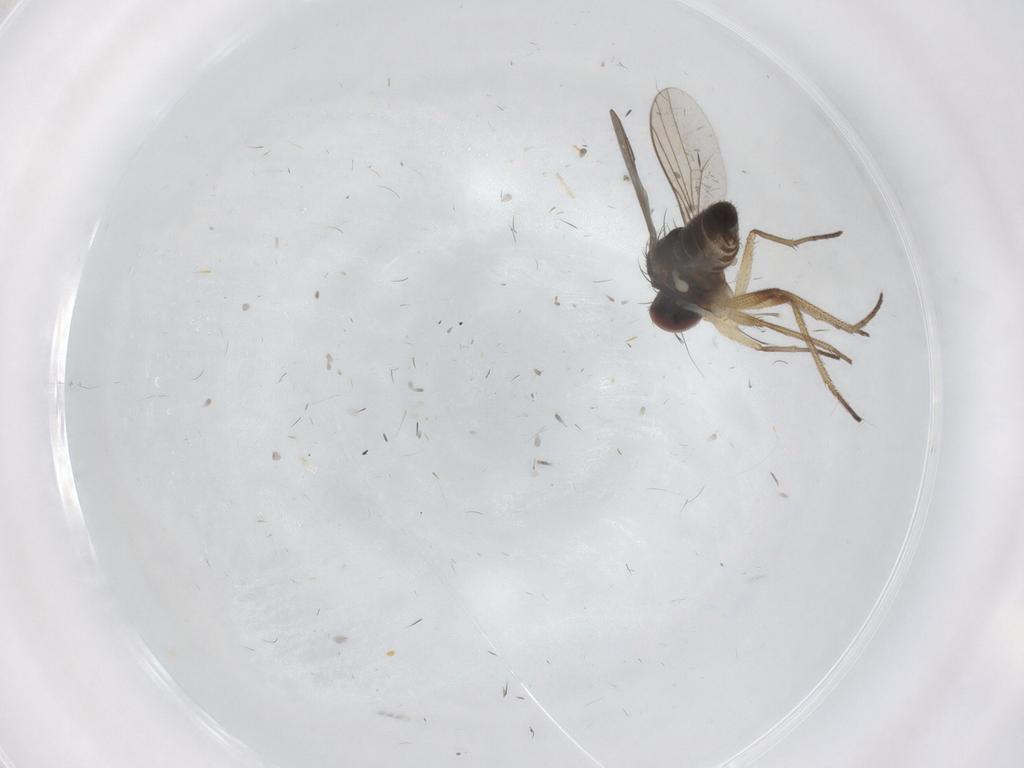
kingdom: Animalia
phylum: Arthropoda
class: Insecta
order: Diptera
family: Dolichopodidae
